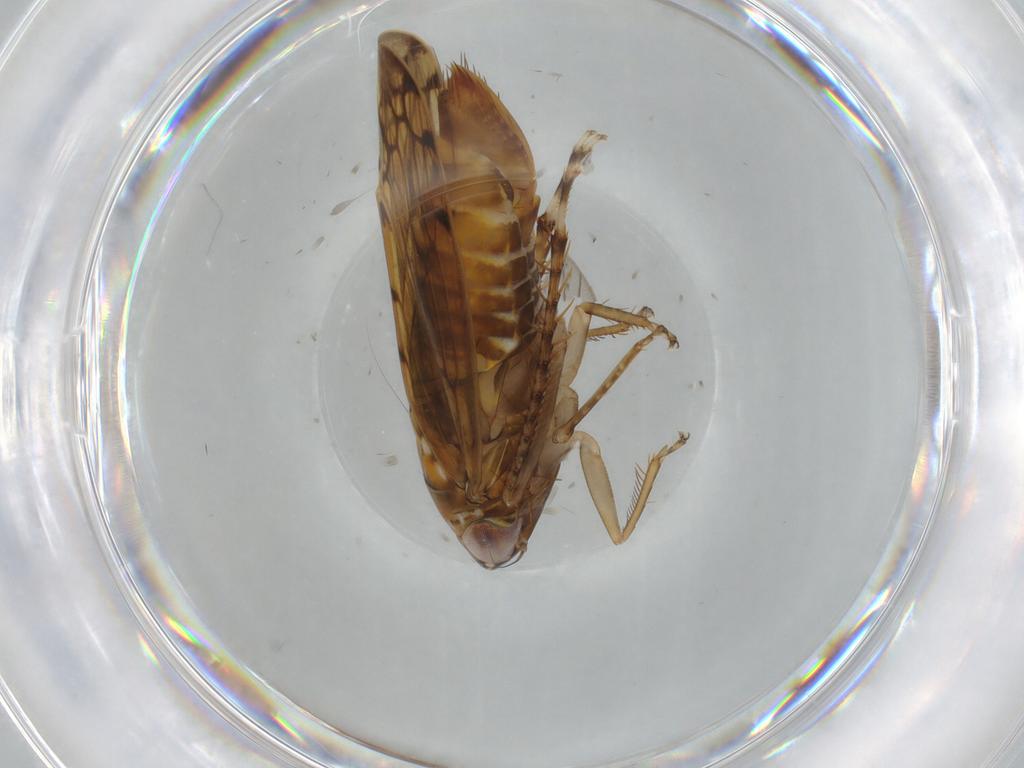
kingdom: Animalia
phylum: Arthropoda
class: Insecta
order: Hemiptera
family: Cicadellidae
